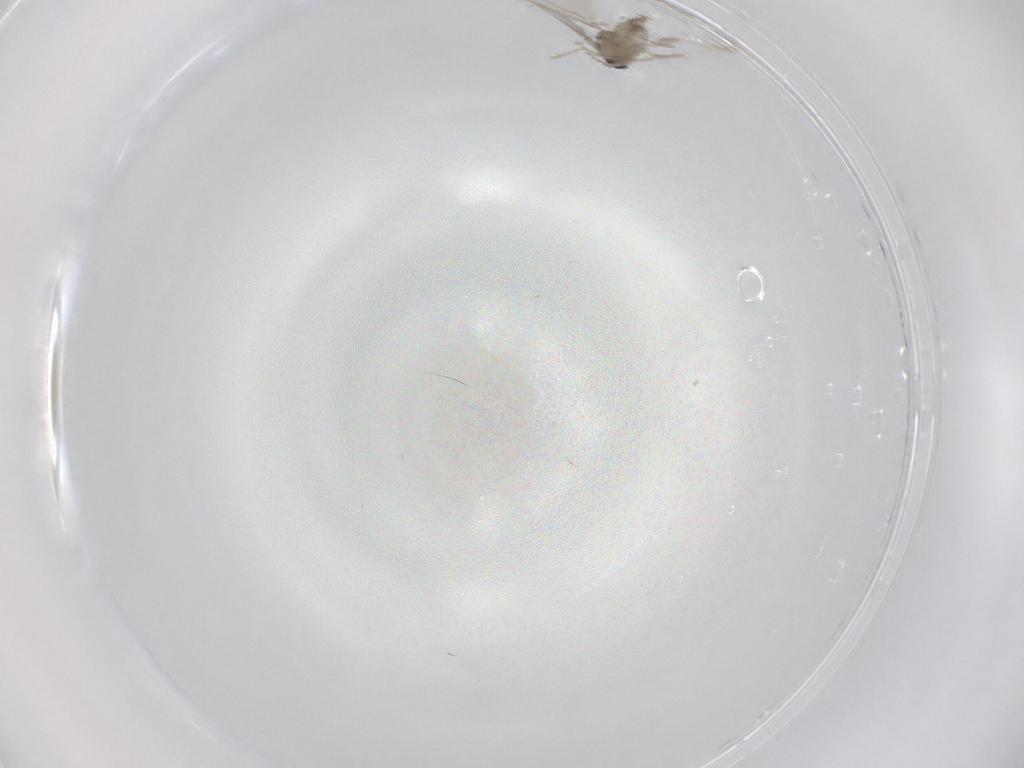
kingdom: Animalia
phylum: Arthropoda
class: Insecta
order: Diptera
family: Cecidomyiidae
